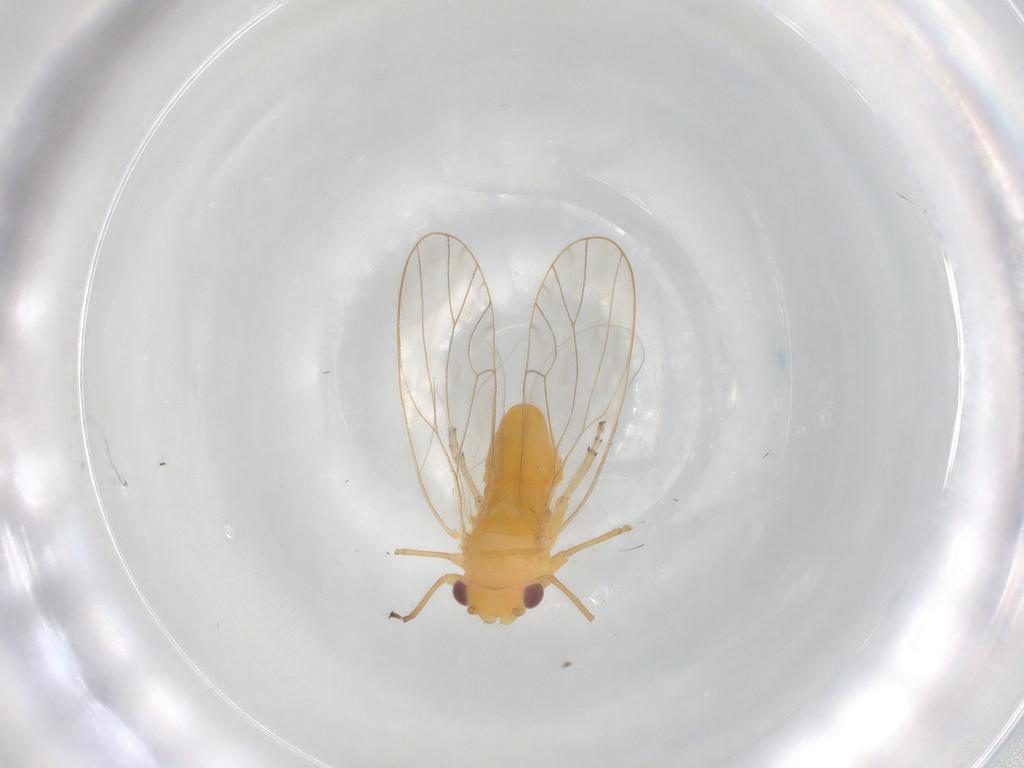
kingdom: Animalia
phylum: Arthropoda
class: Insecta
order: Hemiptera
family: Psyllidae
